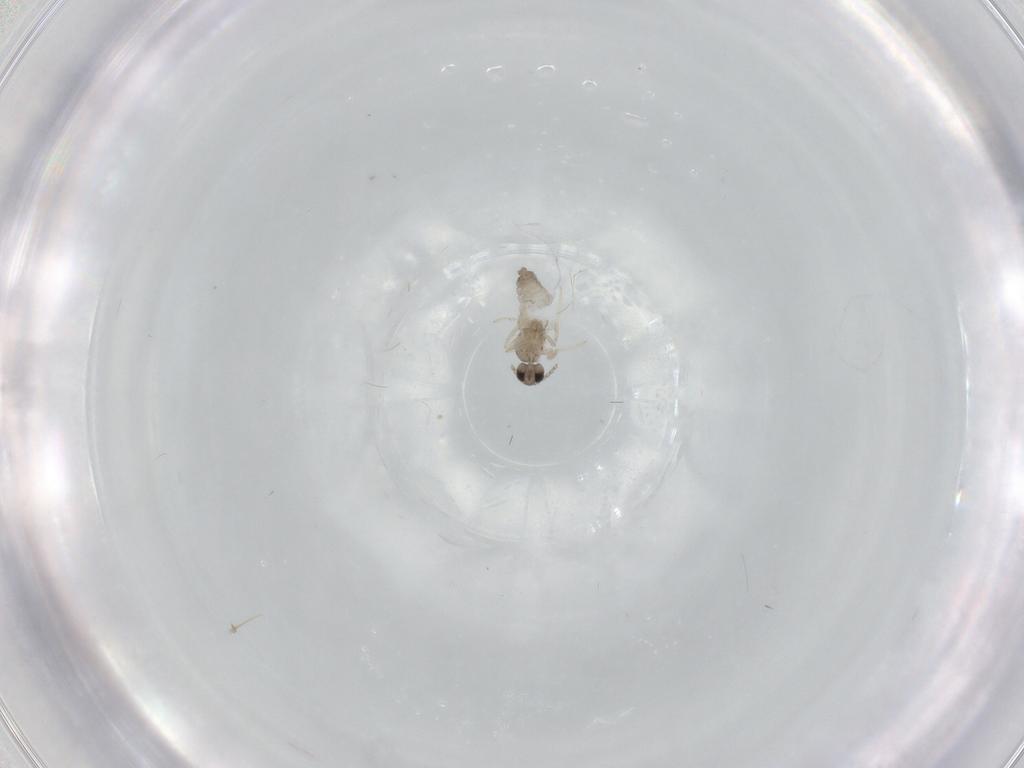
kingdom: Animalia
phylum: Arthropoda
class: Insecta
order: Diptera
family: Cecidomyiidae
